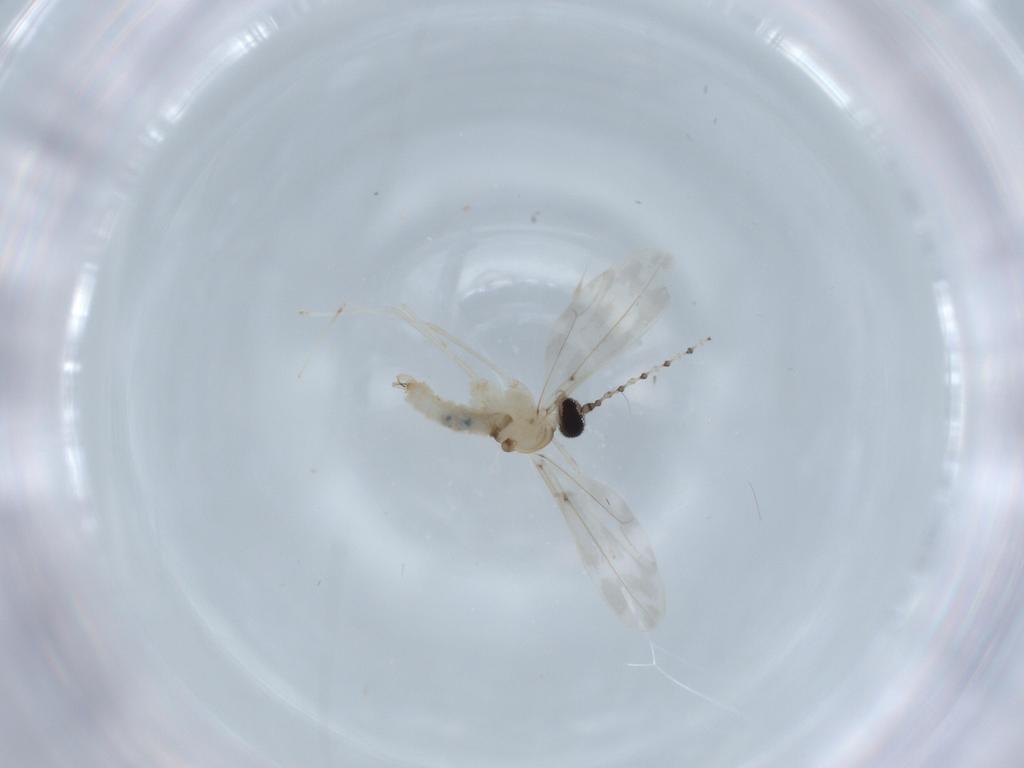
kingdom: Animalia
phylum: Arthropoda
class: Insecta
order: Diptera
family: Cecidomyiidae
